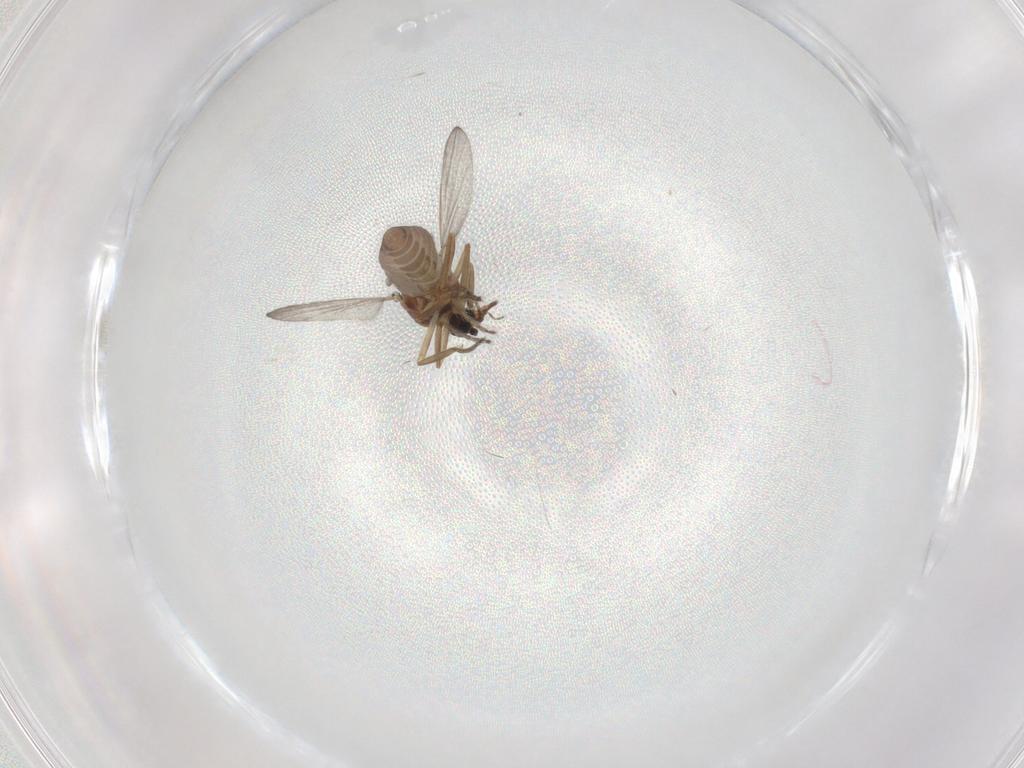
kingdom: Animalia
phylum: Arthropoda
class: Insecta
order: Diptera
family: Ceratopogonidae
